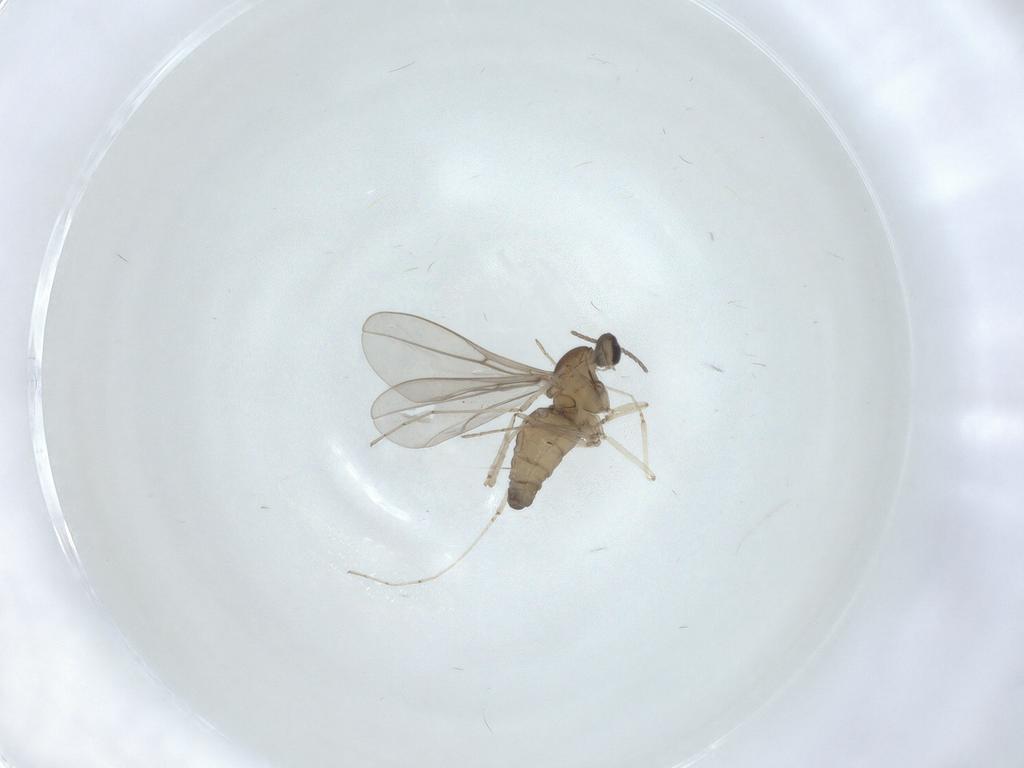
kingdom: Animalia
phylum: Arthropoda
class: Insecta
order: Diptera
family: Cecidomyiidae
